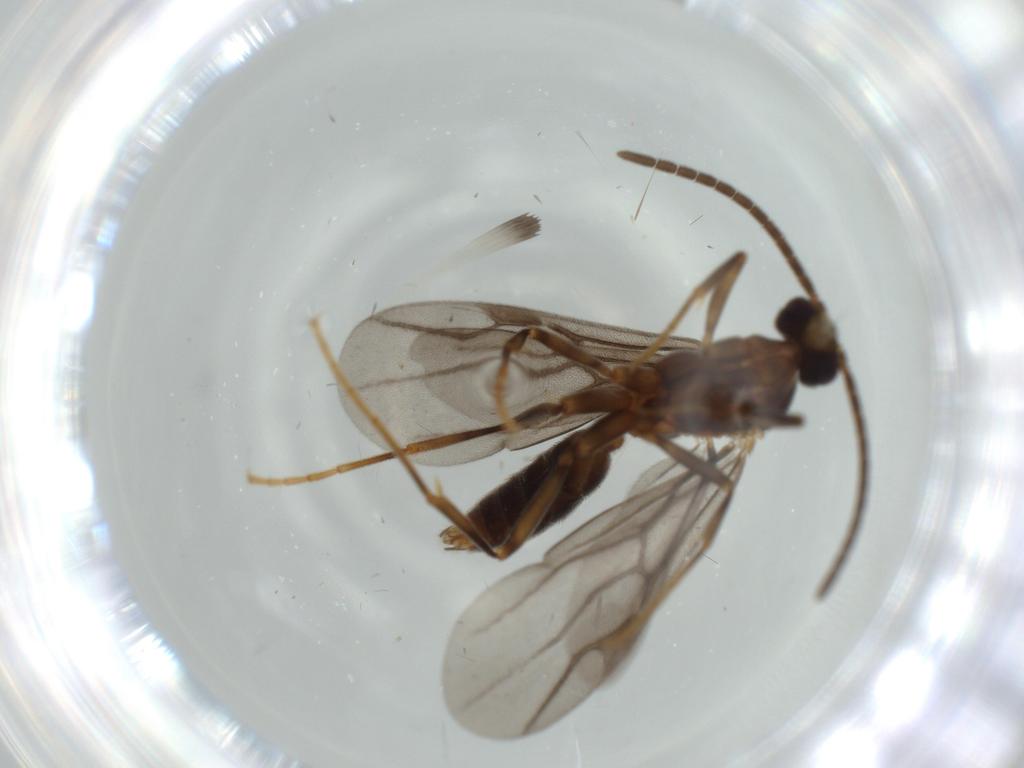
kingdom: Animalia
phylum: Arthropoda
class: Insecta
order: Hymenoptera
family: Formicidae
